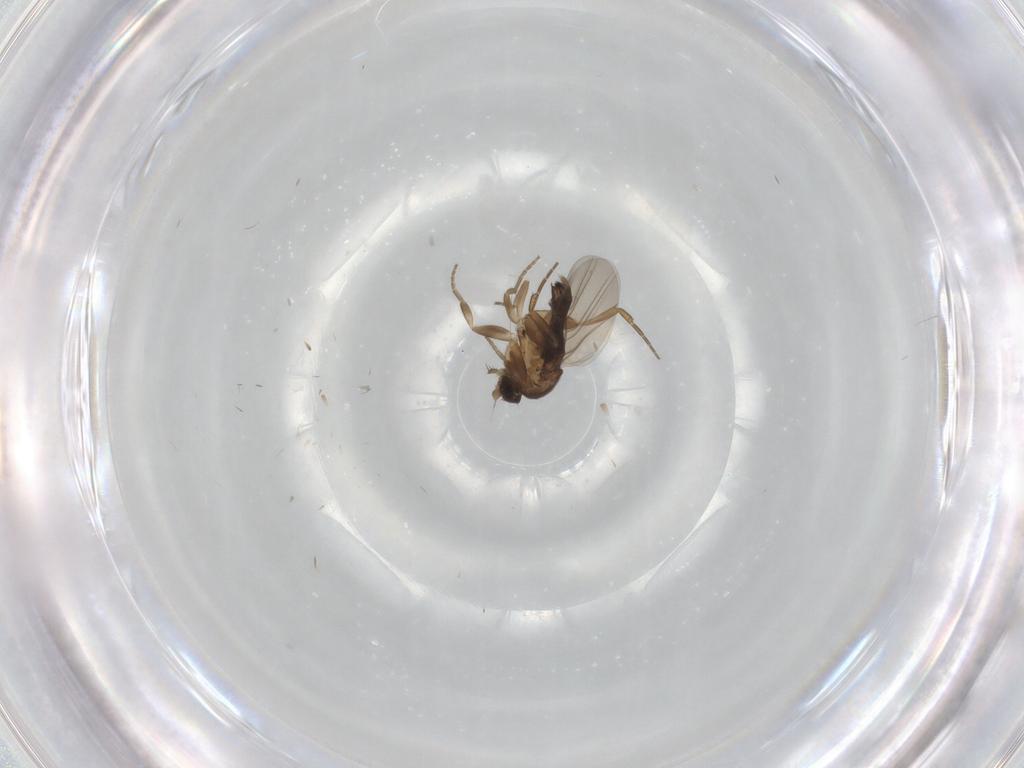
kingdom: Animalia
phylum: Arthropoda
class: Insecta
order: Diptera
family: Phoridae
